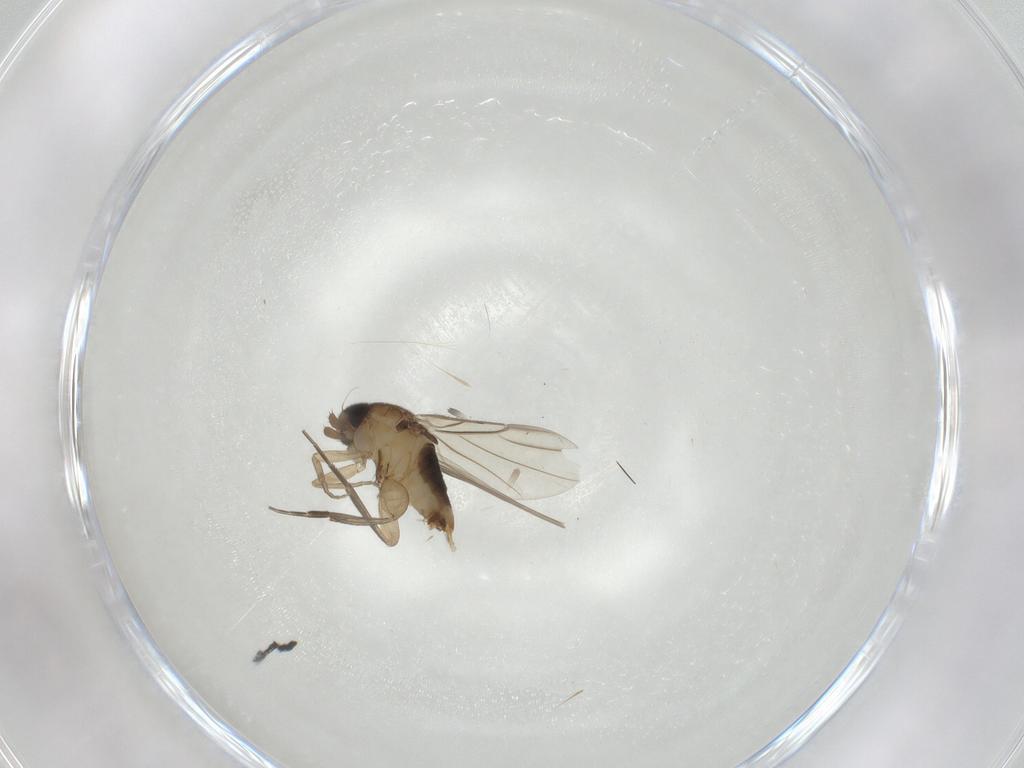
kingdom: Animalia
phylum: Arthropoda
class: Insecta
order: Diptera
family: Phoridae
